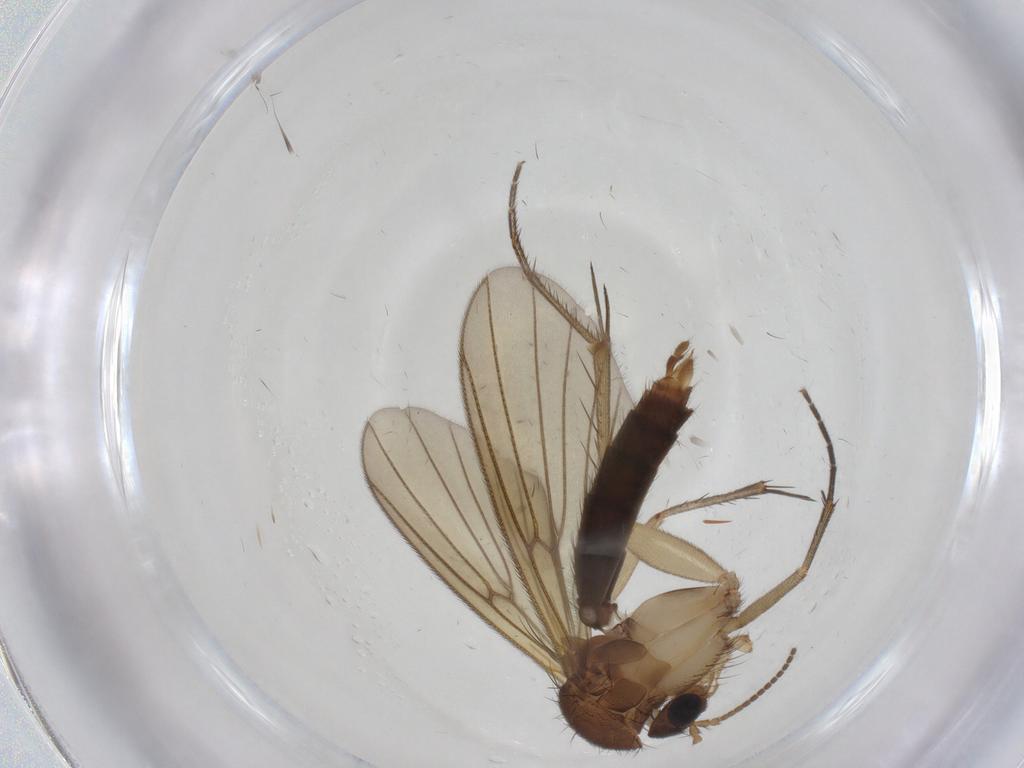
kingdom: Animalia
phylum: Arthropoda
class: Insecta
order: Diptera
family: Mycetophilidae
